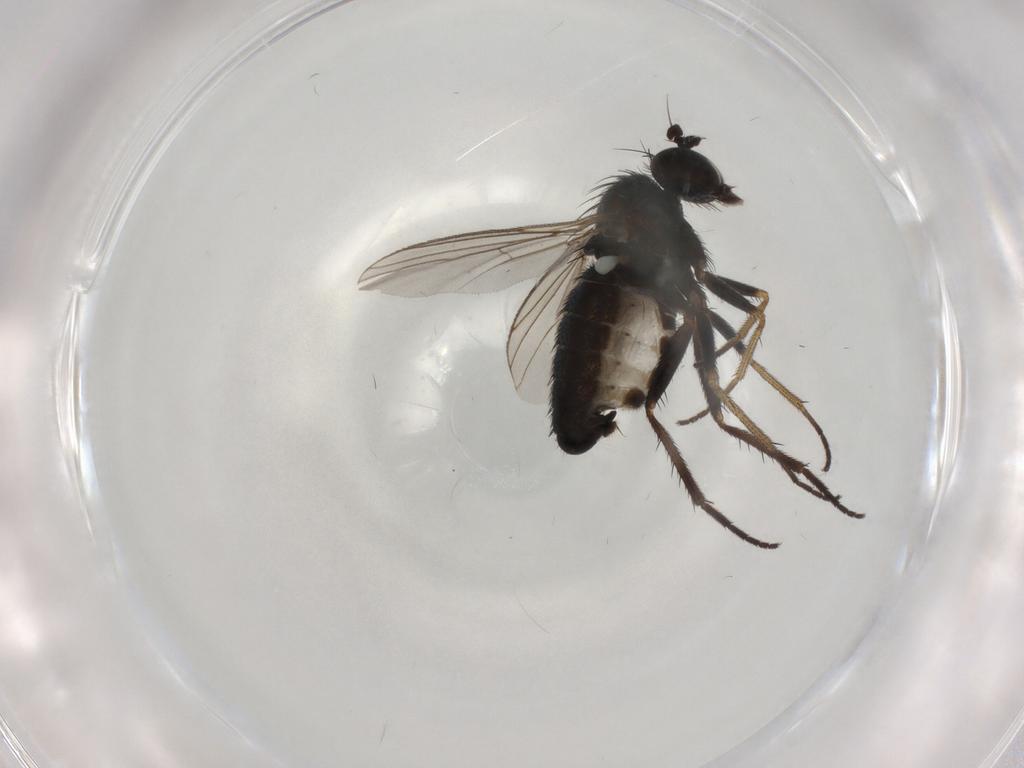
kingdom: Animalia
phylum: Arthropoda
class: Insecta
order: Diptera
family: Dolichopodidae
